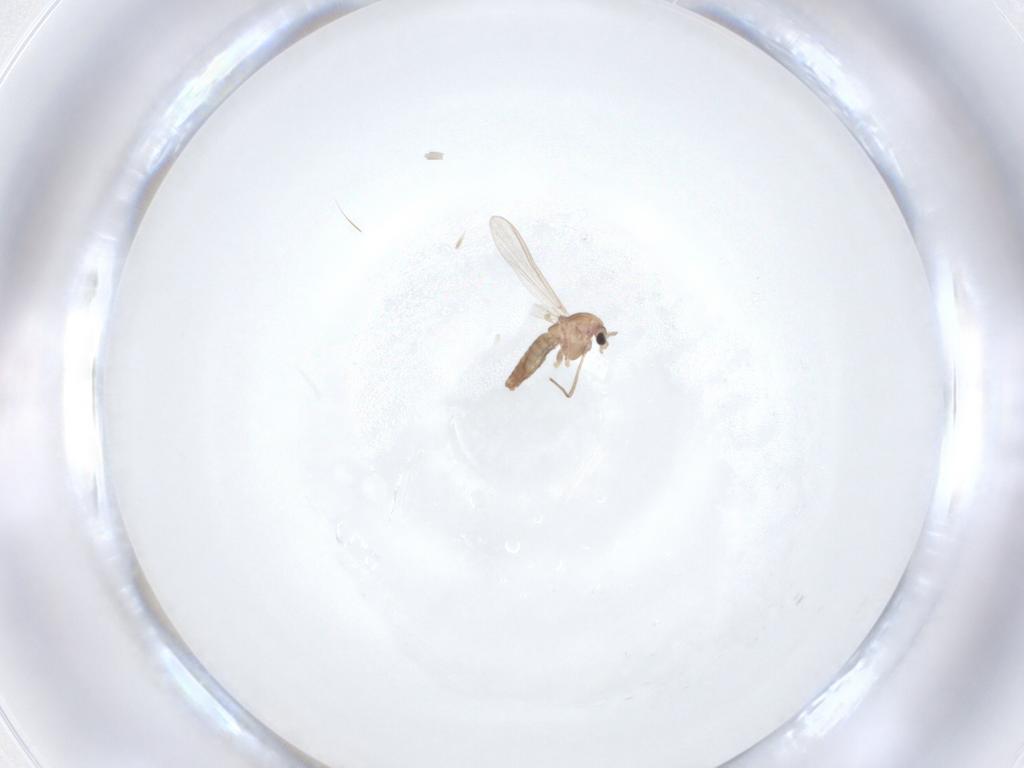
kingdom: Animalia
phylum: Arthropoda
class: Insecta
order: Diptera
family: Chironomidae
